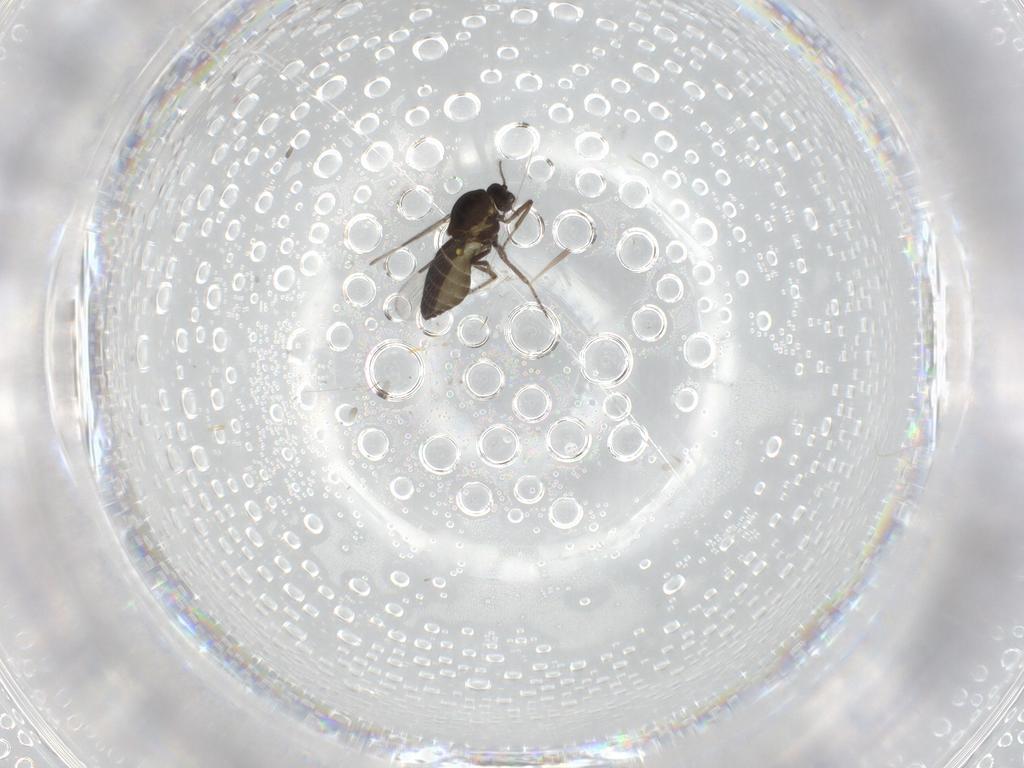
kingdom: Animalia
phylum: Arthropoda
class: Insecta
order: Diptera
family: Ceratopogonidae
